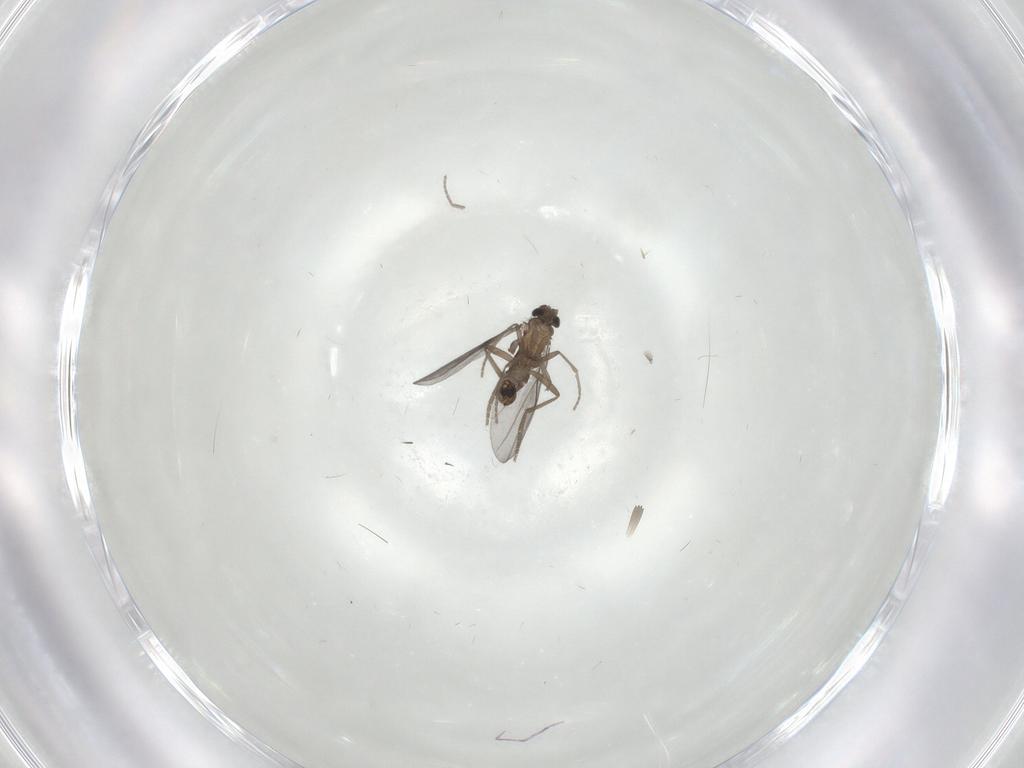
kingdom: Animalia
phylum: Arthropoda
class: Insecta
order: Diptera
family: Ceratopogonidae
